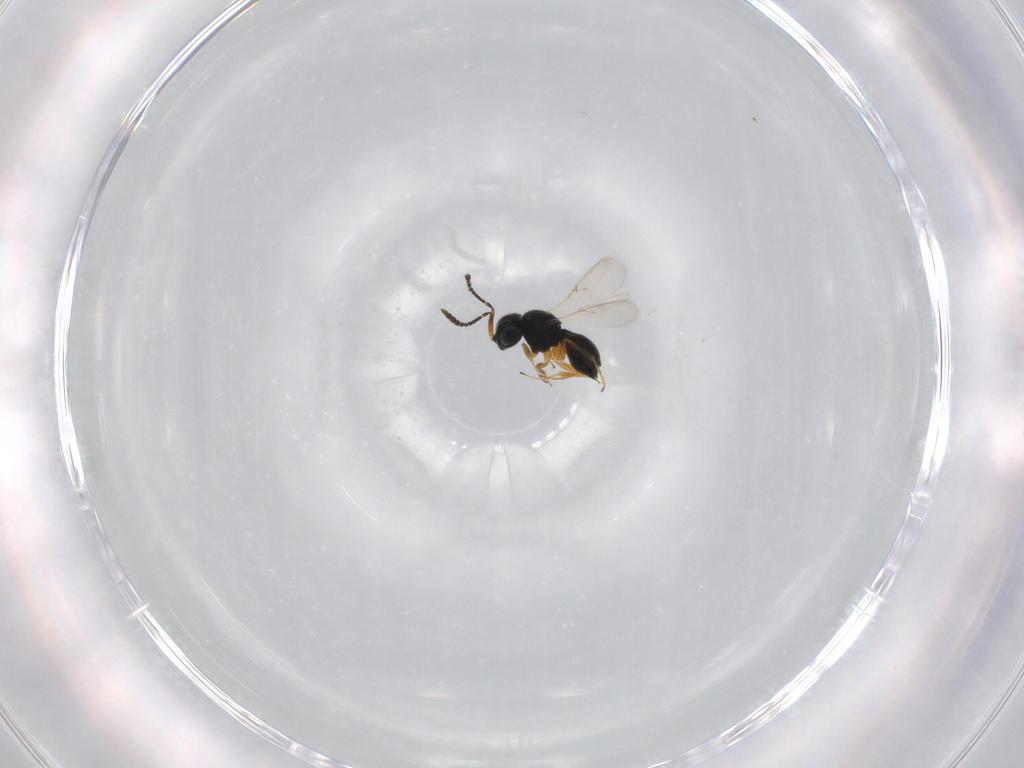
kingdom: Animalia
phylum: Arthropoda
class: Insecta
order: Hymenoptera
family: Scelionidae
